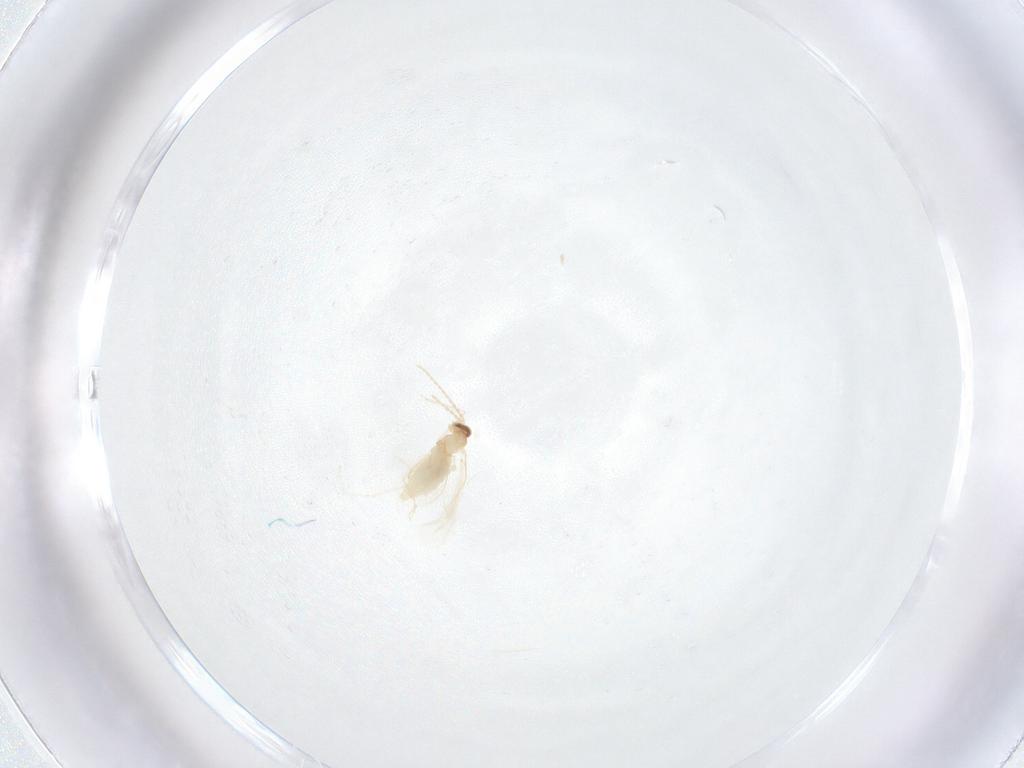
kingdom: Animalia
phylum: Arthropoda
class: Insecta
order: Diptera
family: Cecidomyiidae
